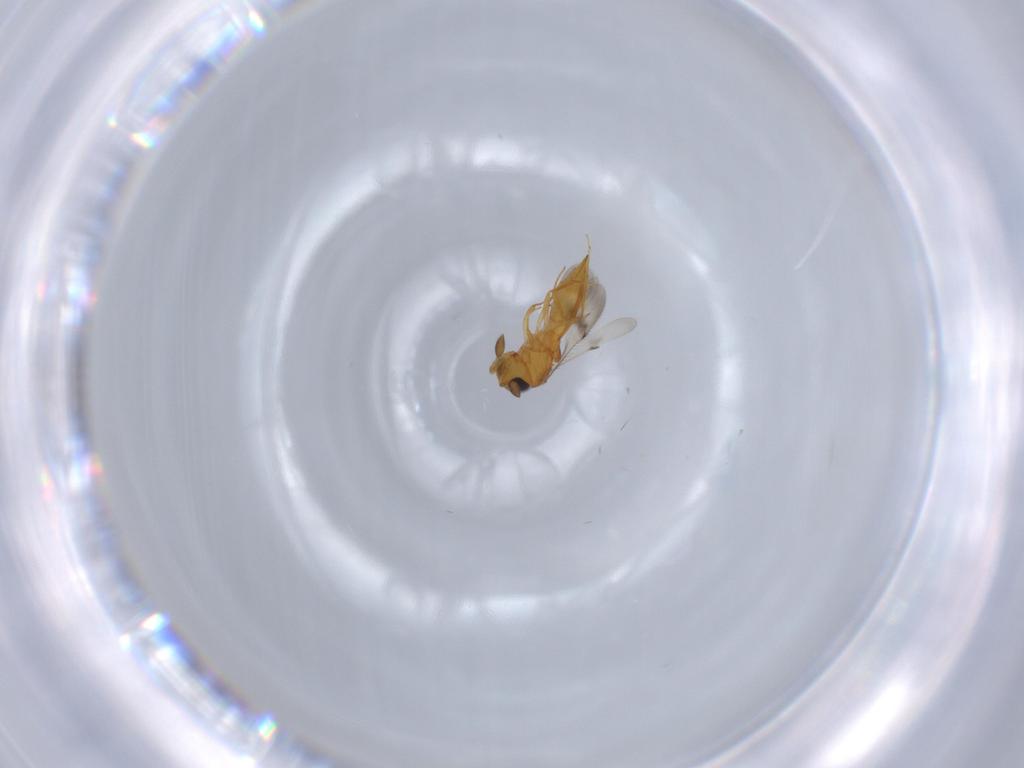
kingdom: Animalia
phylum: Arthropoda
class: Insecta
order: Hymenoptera
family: Scelionidae
